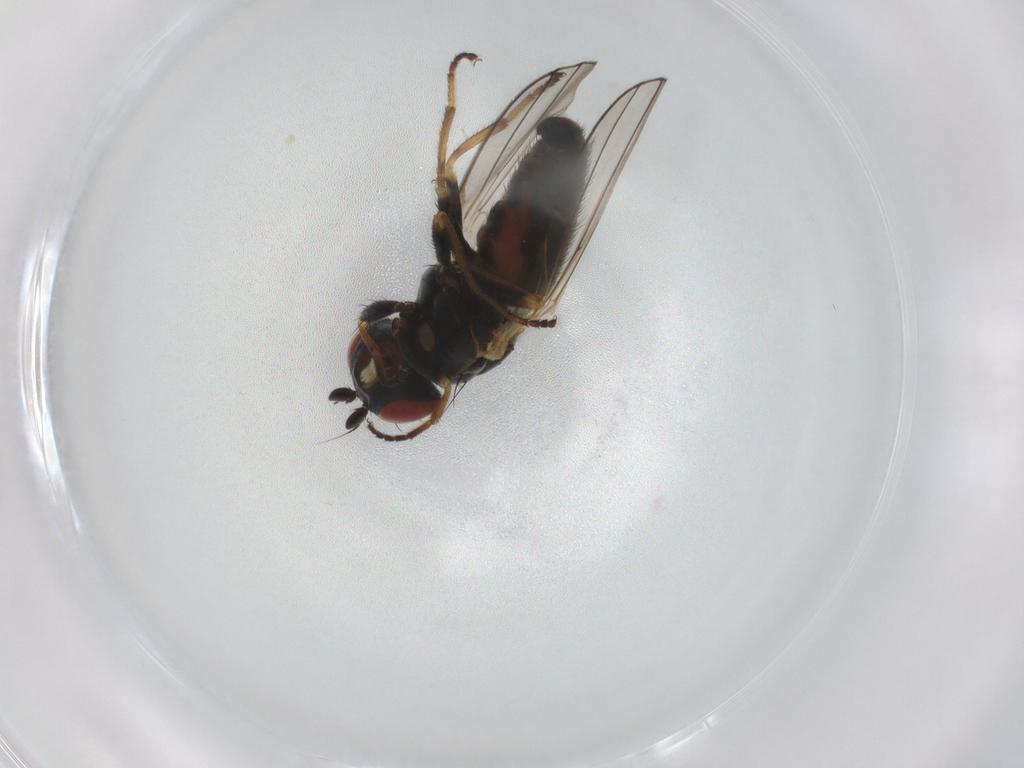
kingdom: Animalia
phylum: Arthropoda
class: Insecta
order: Diptera
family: Chamaemyiidae
